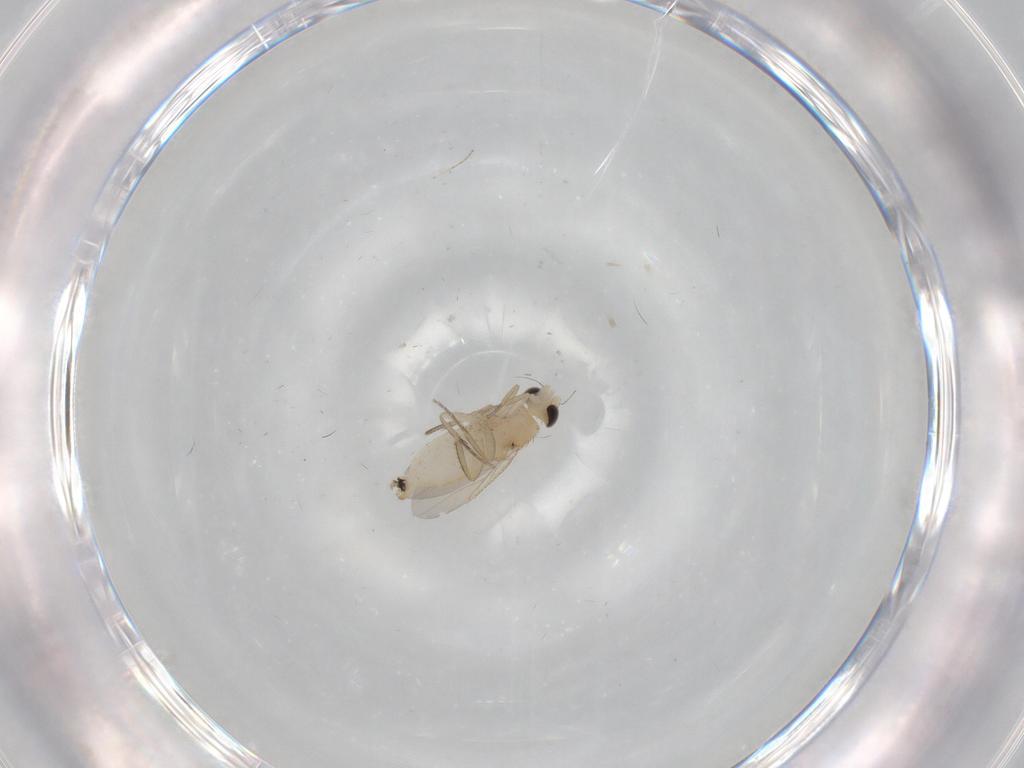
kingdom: Animalia
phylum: Arthropoda
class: Insecta
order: Diptera
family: Chironomidae
